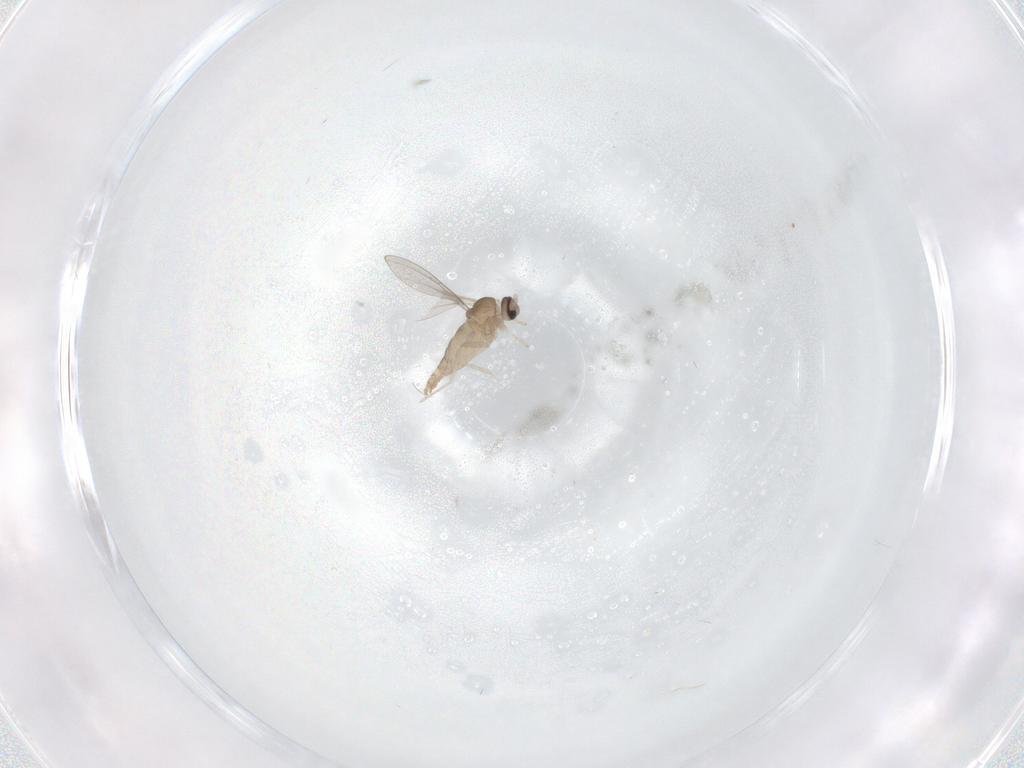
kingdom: Animalia
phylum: Arthropoda
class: Insecta
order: Diptera
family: Cecidomyiidae
